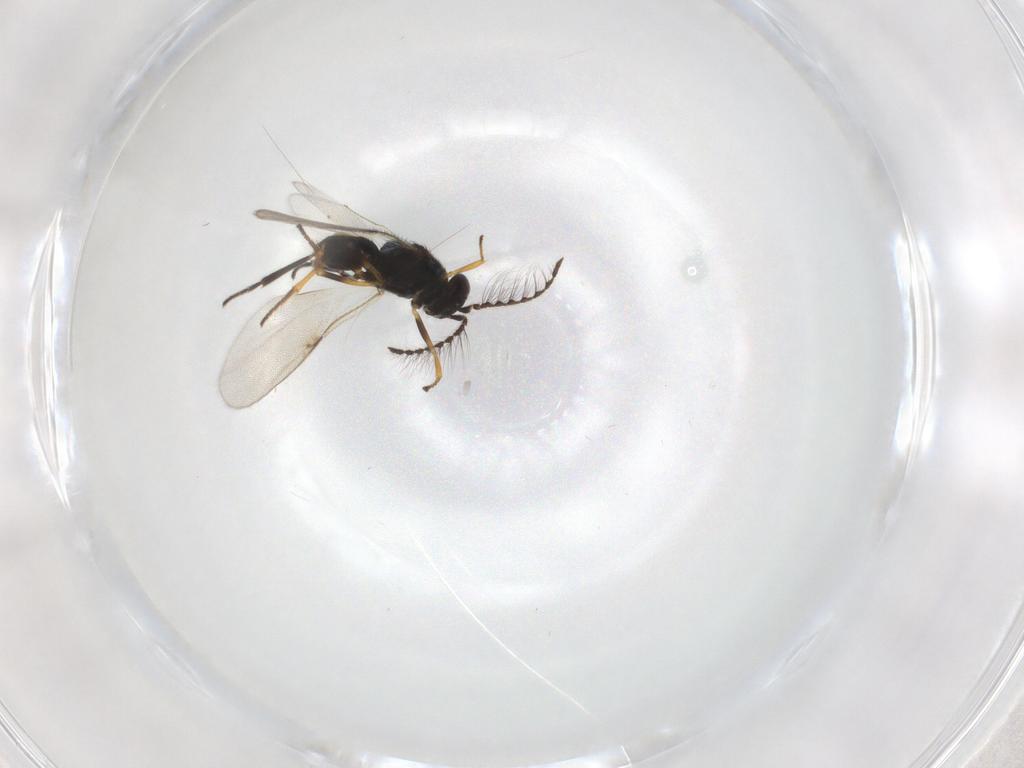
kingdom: Animalia
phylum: Arthropoda
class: Insecta
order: Hymenoptera
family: Encyrtidae
